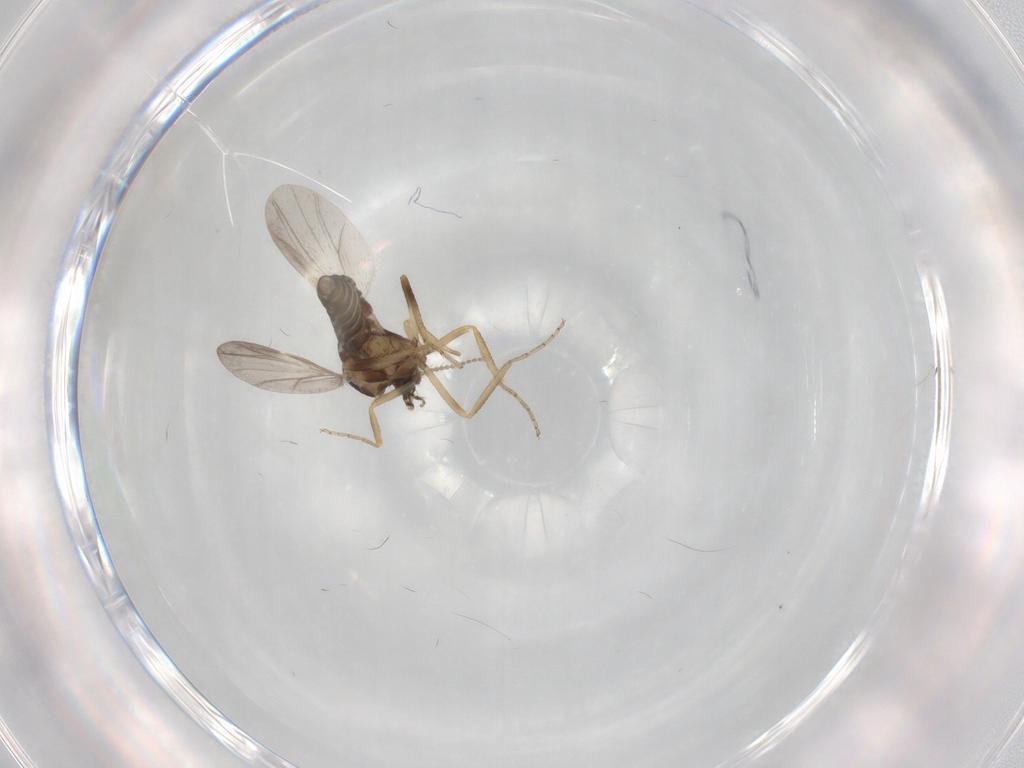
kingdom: Animalia
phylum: Arthropoda
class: Insecta
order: Diptera
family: Ceratopogonidae
